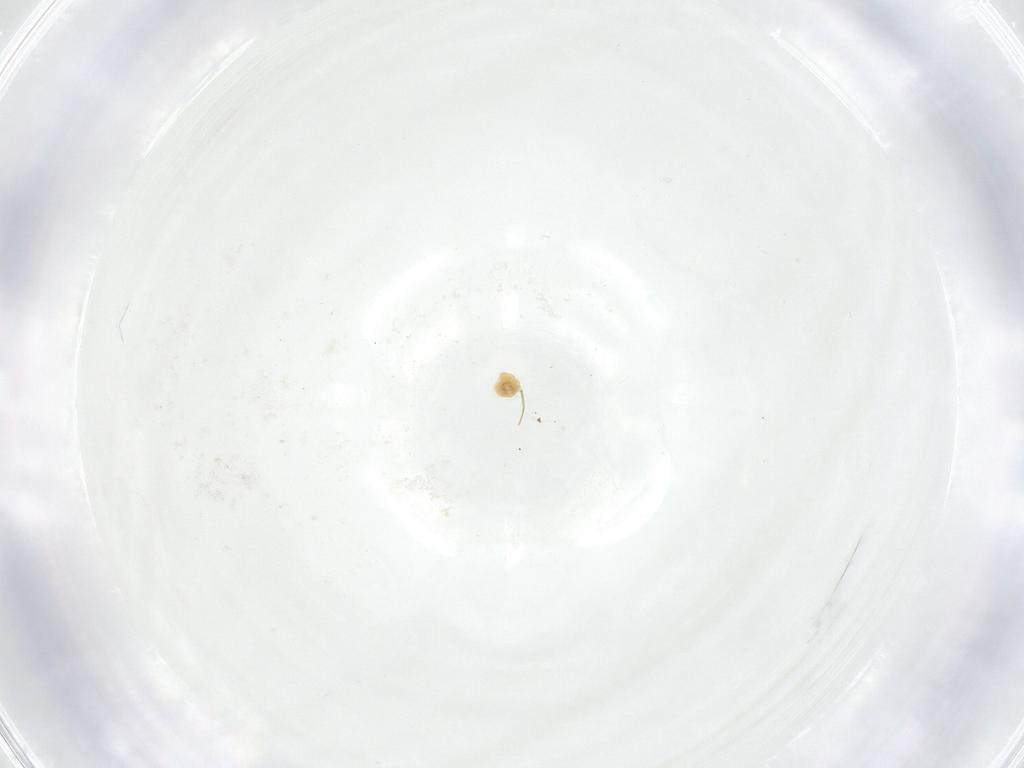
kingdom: Animalia
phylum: Arthropoda
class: Insecta
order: Diptera
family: Fergusoninidae
